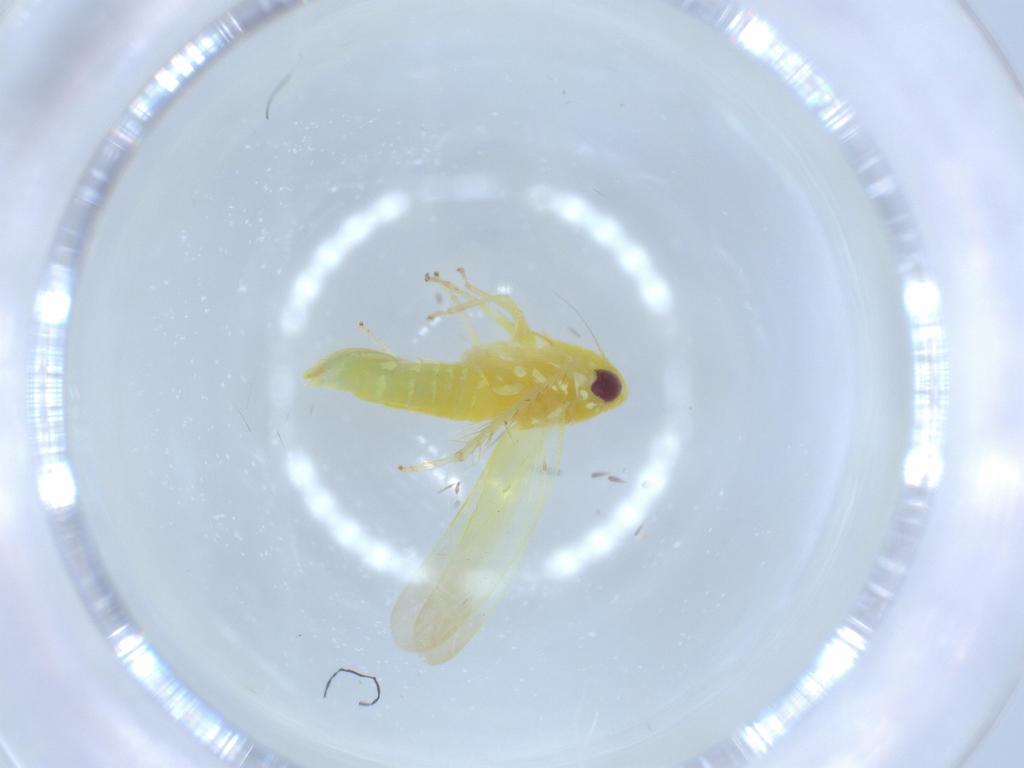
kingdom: Animalia
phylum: Arthropoda
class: Insecta
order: Hemiptera
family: Cicadellidae
